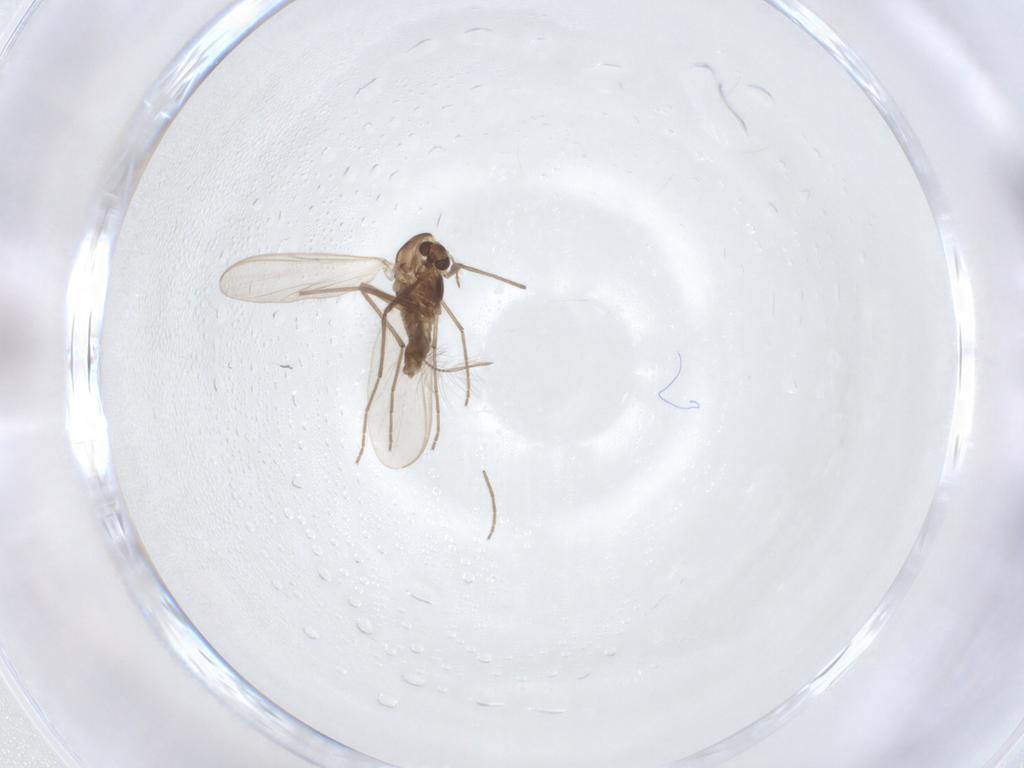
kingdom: Animalia
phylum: Arthropoda
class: Insecta
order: Diptera
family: Chironomidae
